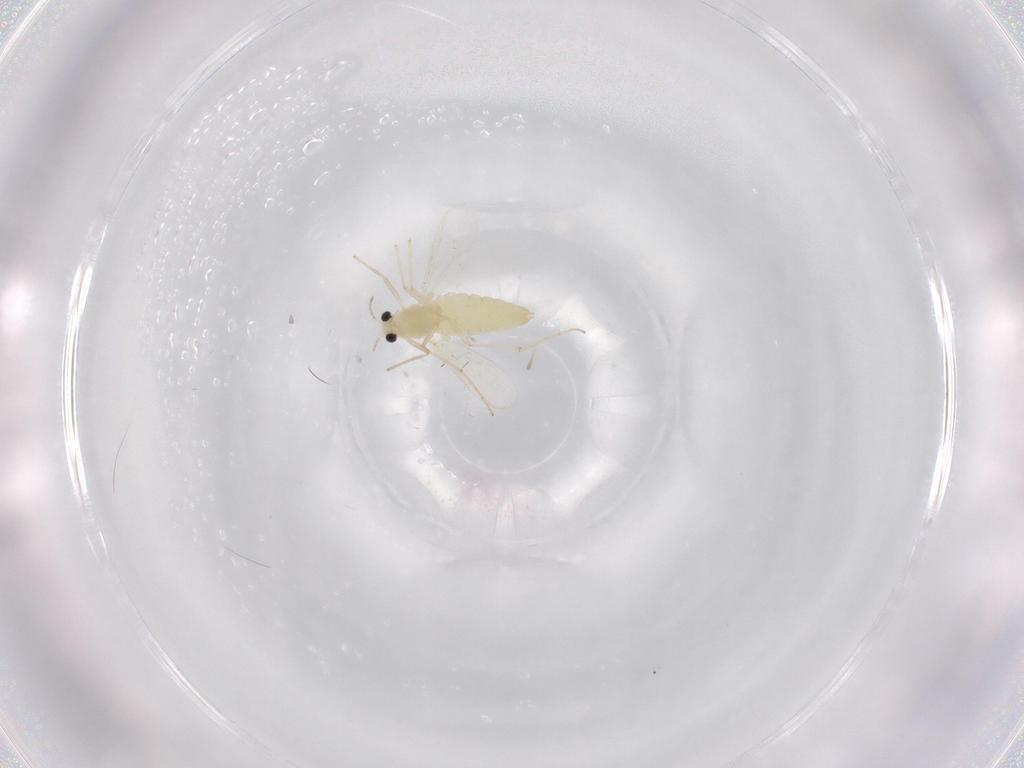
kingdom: Animalia
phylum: Arthropoda
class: Insecta
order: Diptera
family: Chironomidae
